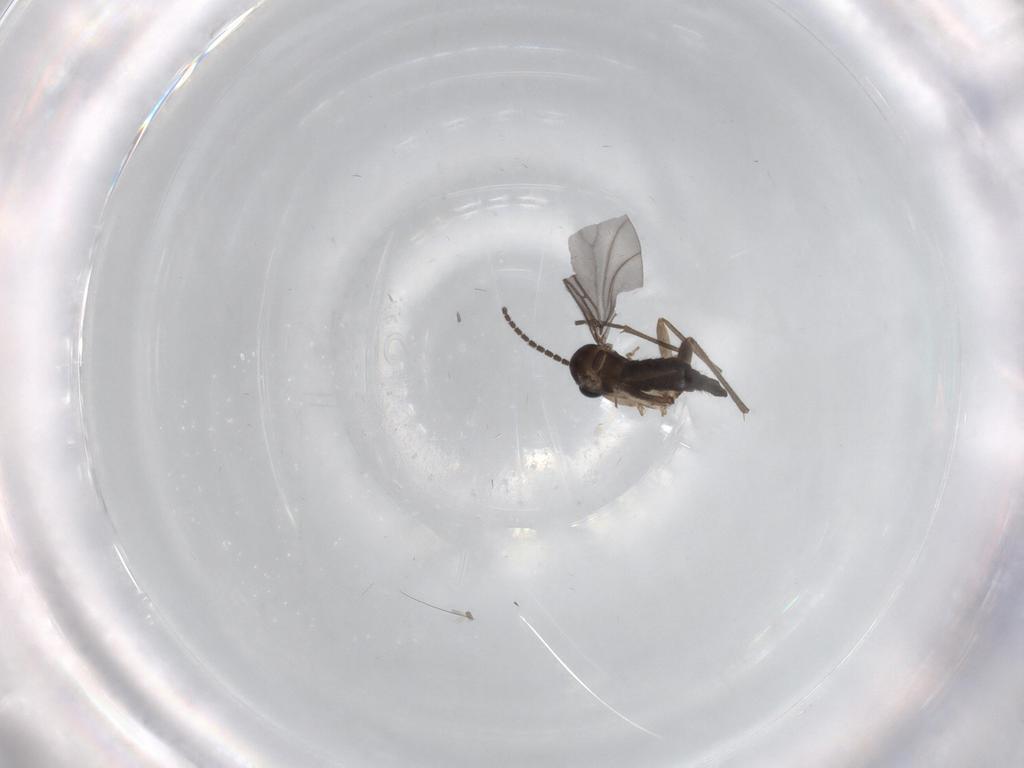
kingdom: Animalia
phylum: Arthropoda
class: Insecta
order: Diptera
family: Sciaridae
